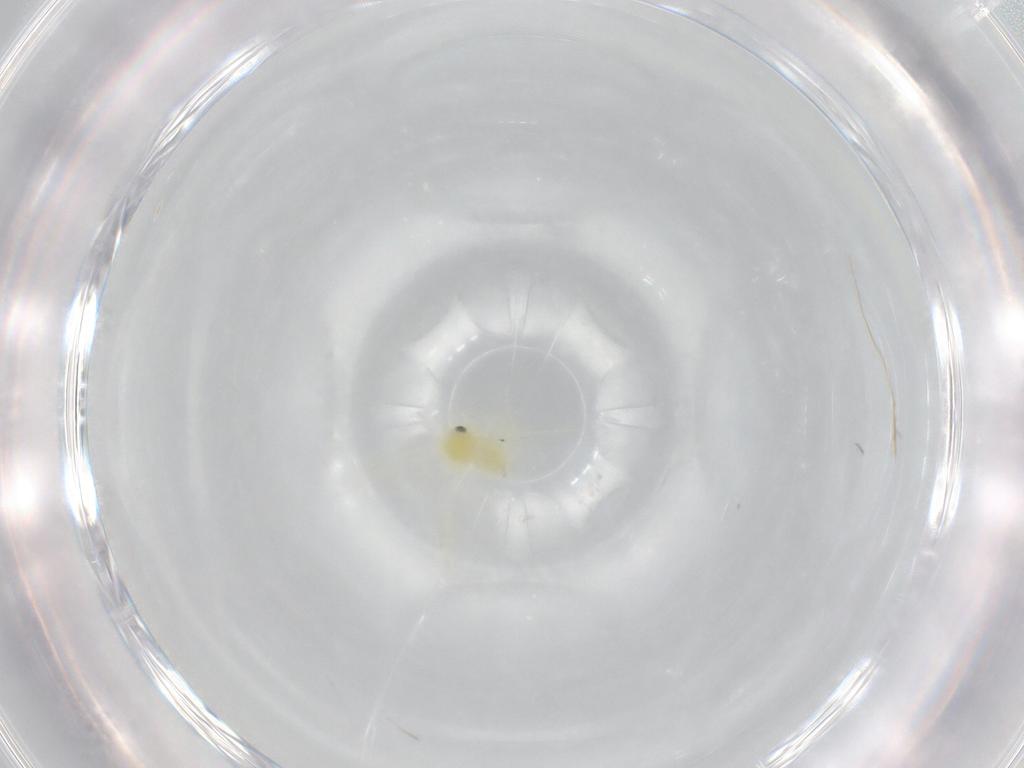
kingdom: Animalia
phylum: Arthropoda
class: Insecta
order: Hemiptera
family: Aleyrodidae
